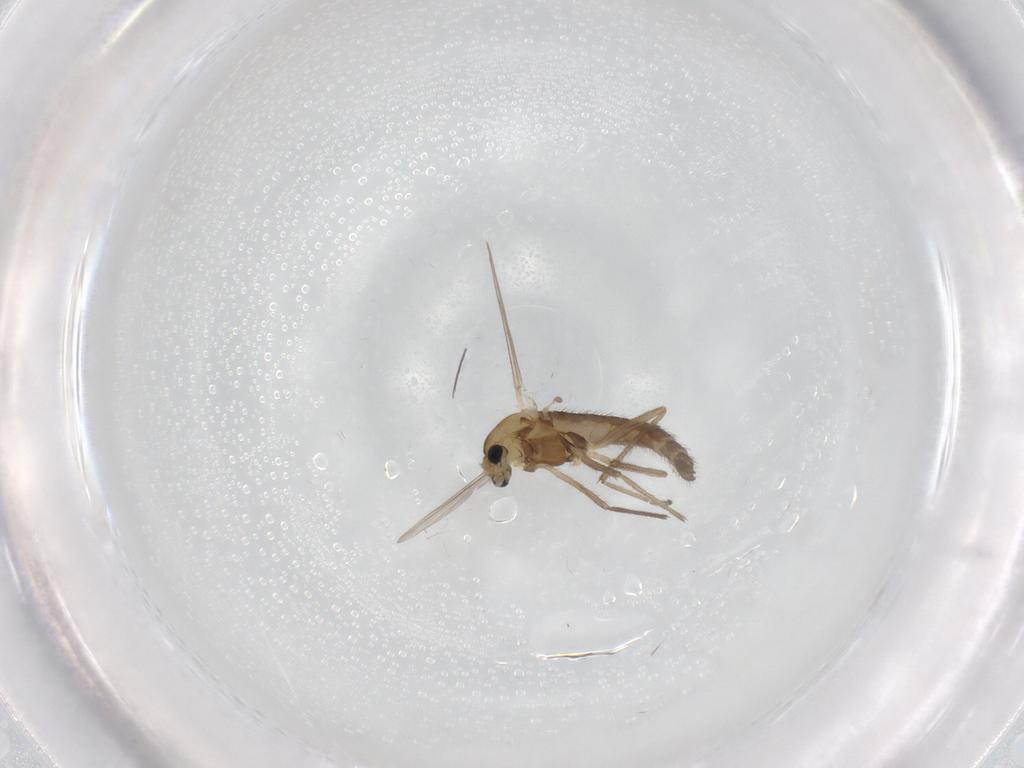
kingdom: Animalia
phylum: Arthropoda
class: Insecta
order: Diptera
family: Chironomidae
